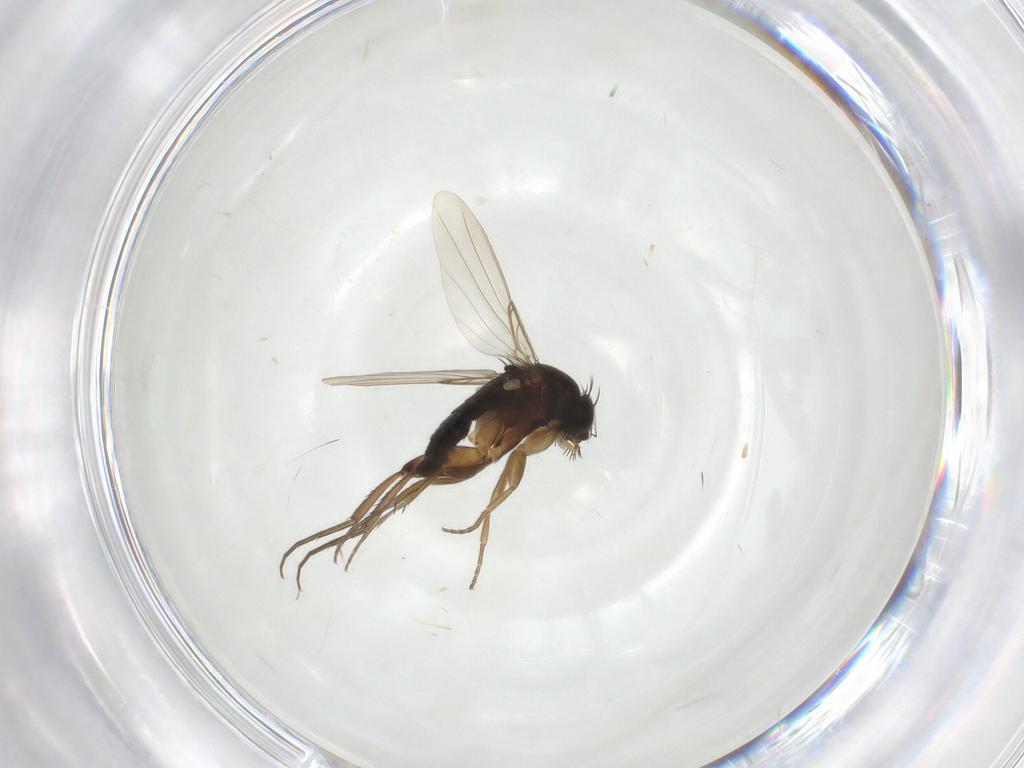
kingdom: Animalia
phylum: Arthropoda
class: Insecta
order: Diptera
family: Phoridae
